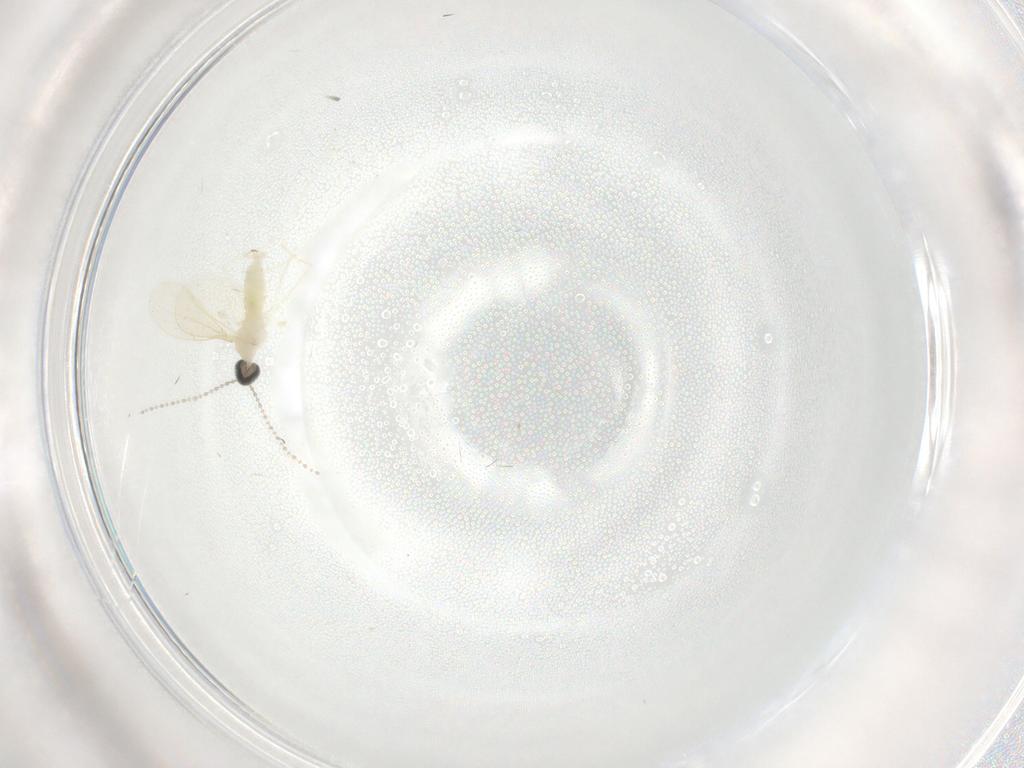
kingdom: Animalia
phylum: Arthropoda
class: Insecta
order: Diptera
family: Cecidomyiidae
